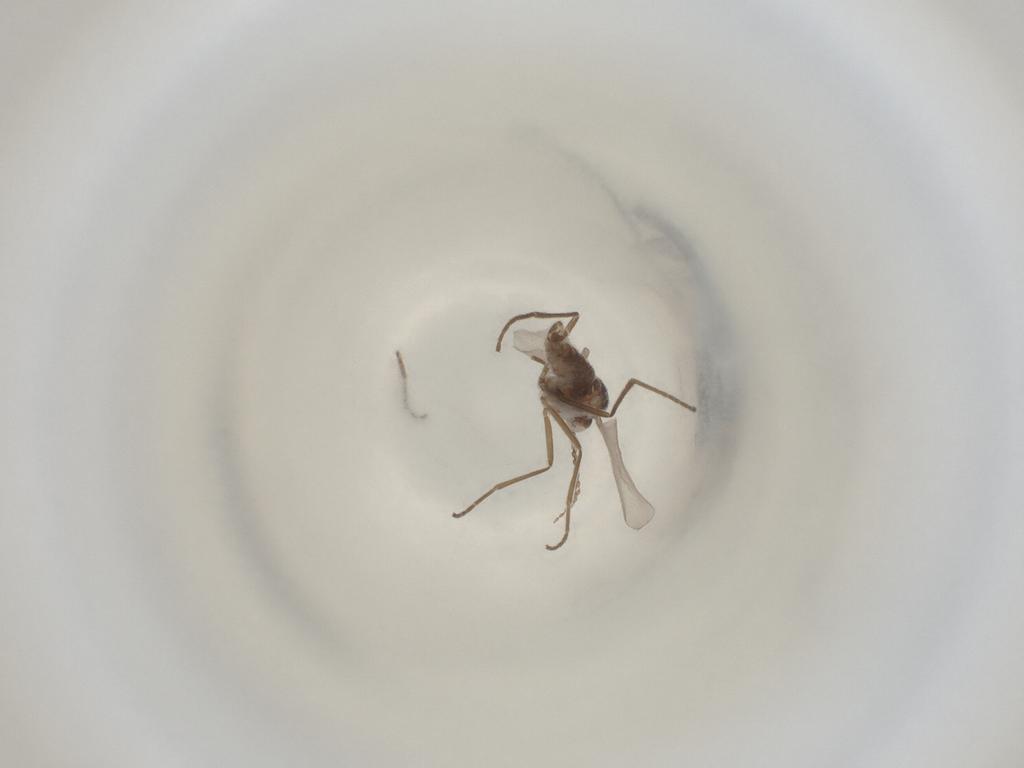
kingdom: Animalia
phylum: Arthropoda
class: Insecta
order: Diptera
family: Cecidomyiidae
